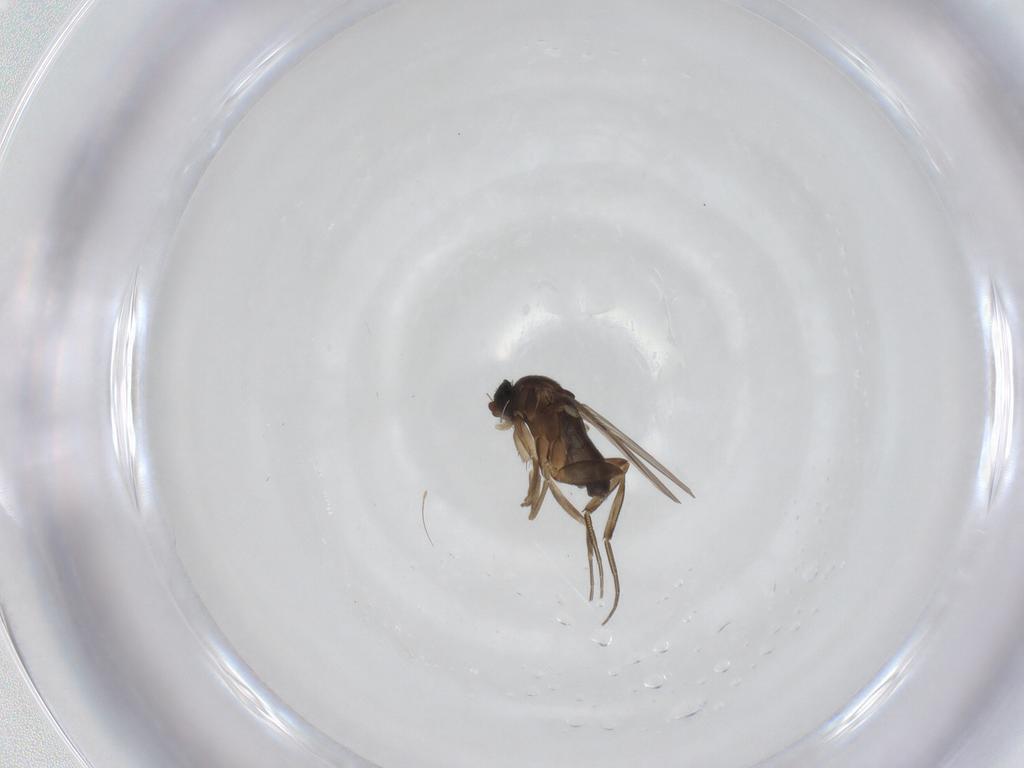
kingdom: Animalia
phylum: Arthropoda
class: Insecta
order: Diptera
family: Phoridae
